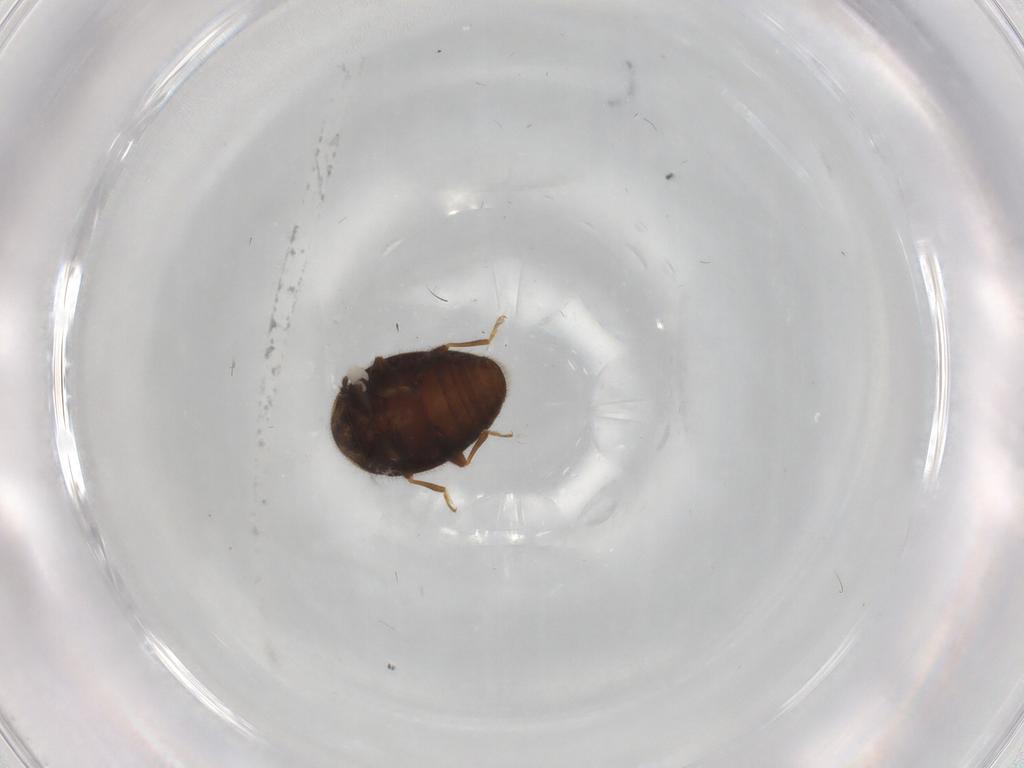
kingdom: Animalia
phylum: Arthropoda
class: Insecta
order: Coleoptera
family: Corylophidae
